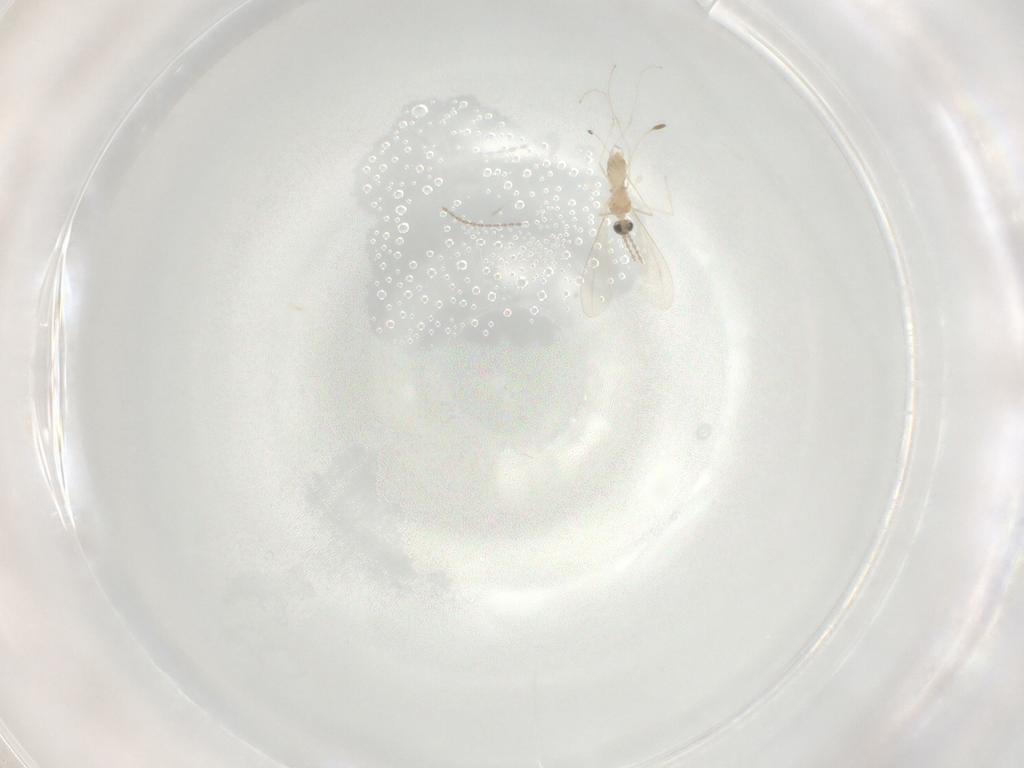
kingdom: Animalia
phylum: Arthropoda
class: Insecta
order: Diptera
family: Cecidomyiidae
